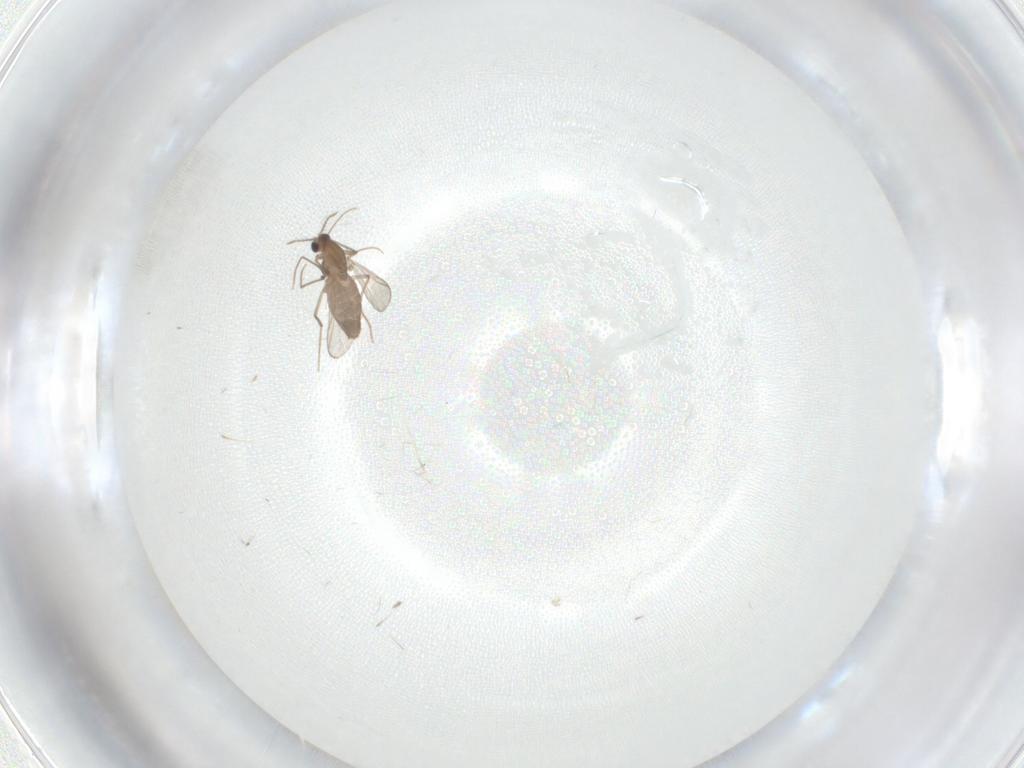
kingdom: Animalia
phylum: Arthropoda
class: Insecta
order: Diptera
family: Chironomidae
